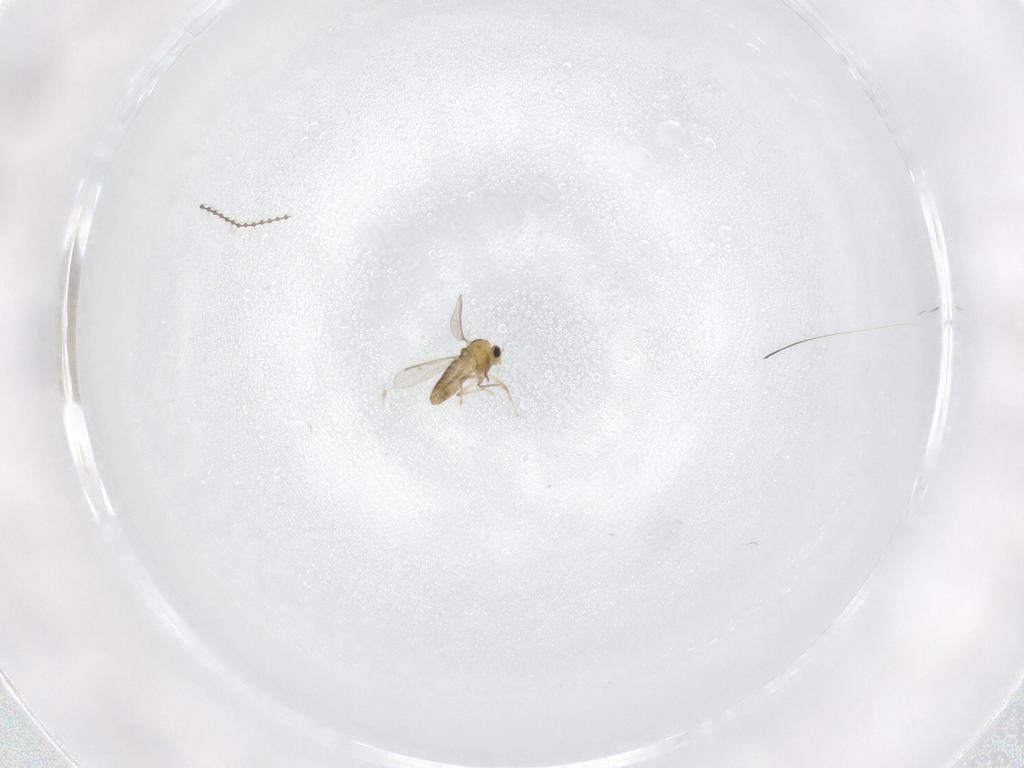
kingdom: Animalia
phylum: Arthropoda
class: Insecta
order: Diptera
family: Chironomidae
